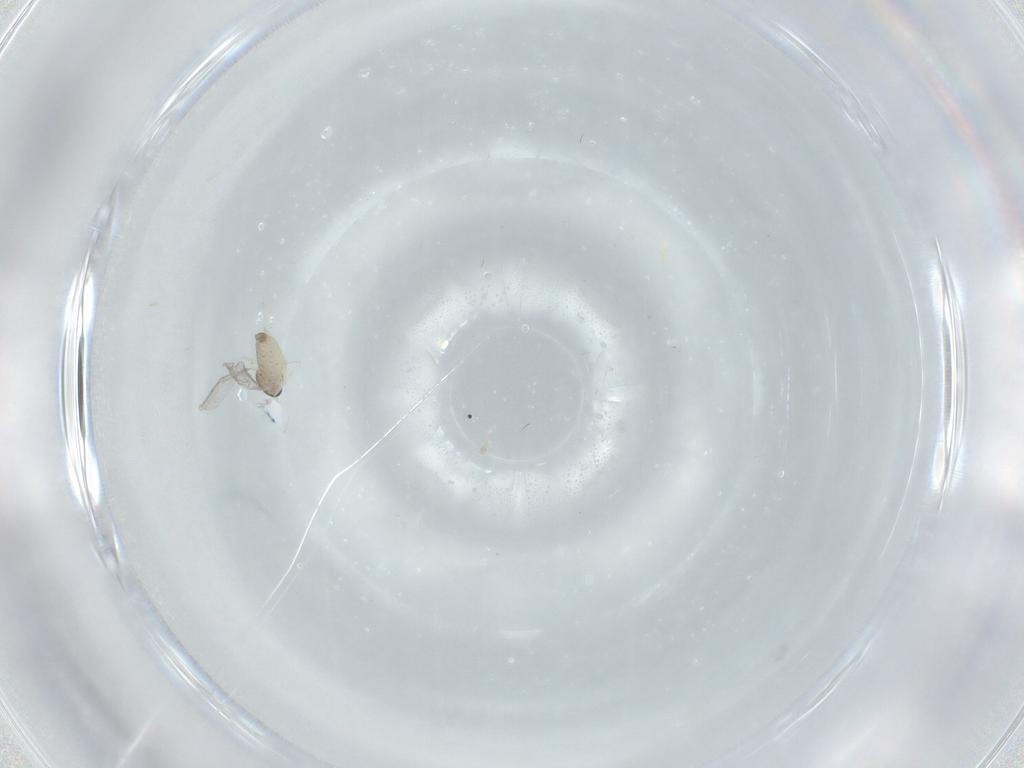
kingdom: Animalia
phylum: Arthropoda
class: Insecta
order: Diptera
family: Cecidomyiidae
